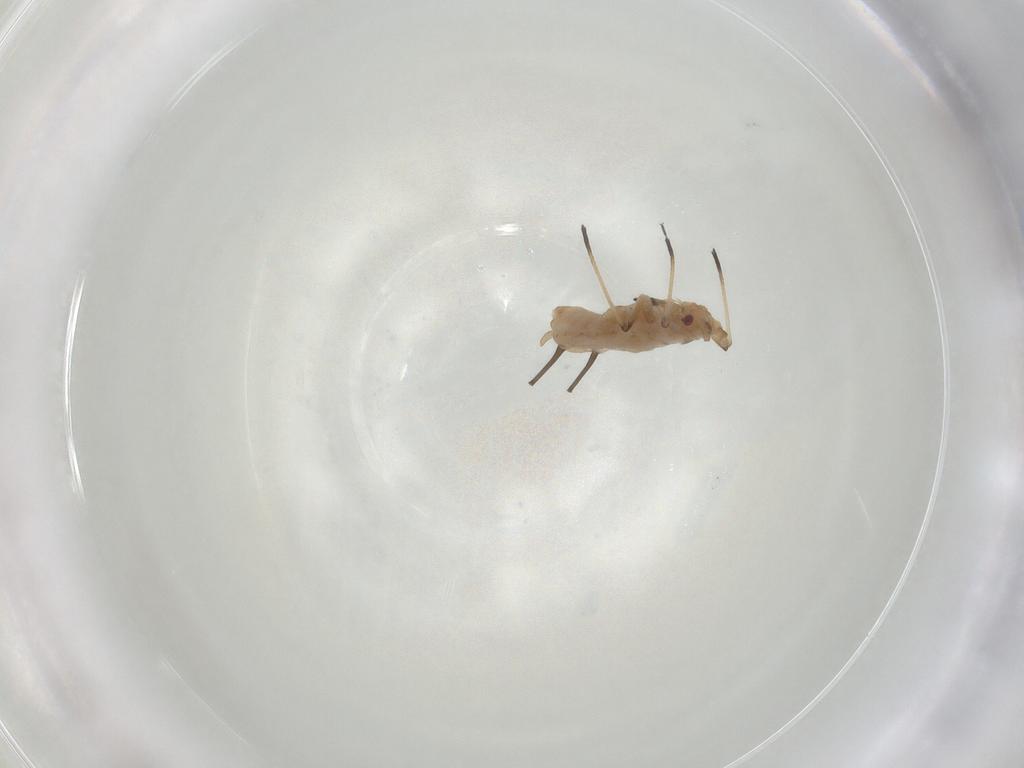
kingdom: Animalia
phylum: Arthropoda
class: Insecta
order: Hemiptera
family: Aphididae
